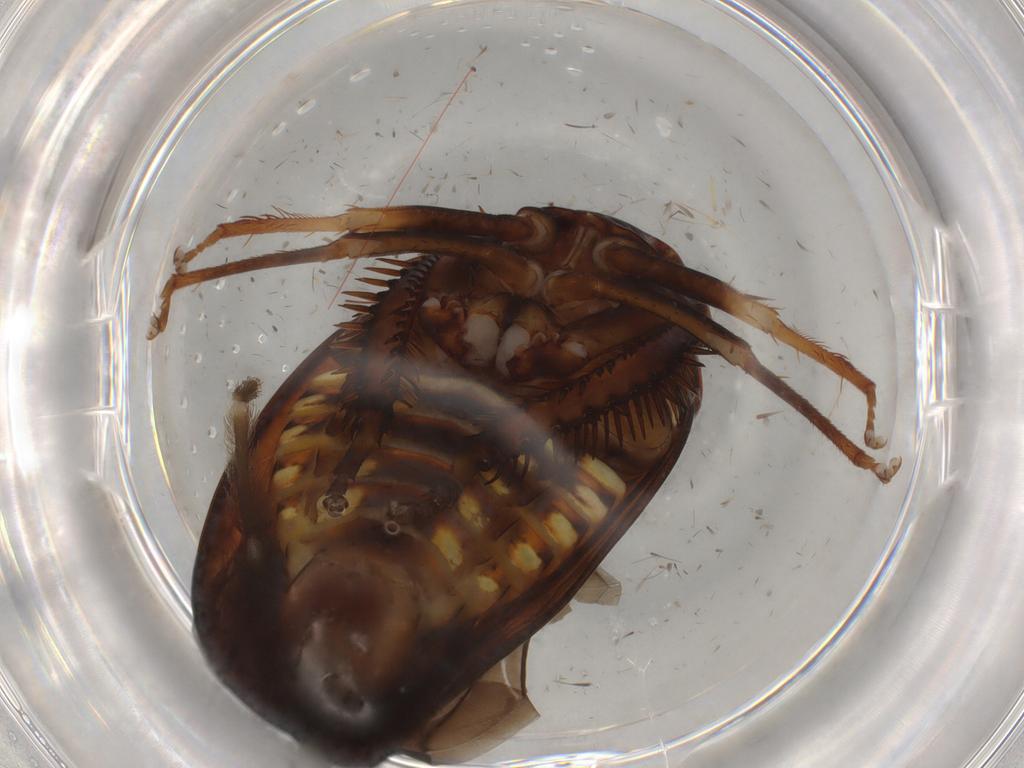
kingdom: Animalia
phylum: Arthropoda
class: Insecta
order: Hemiptera
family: Cicadellidae
